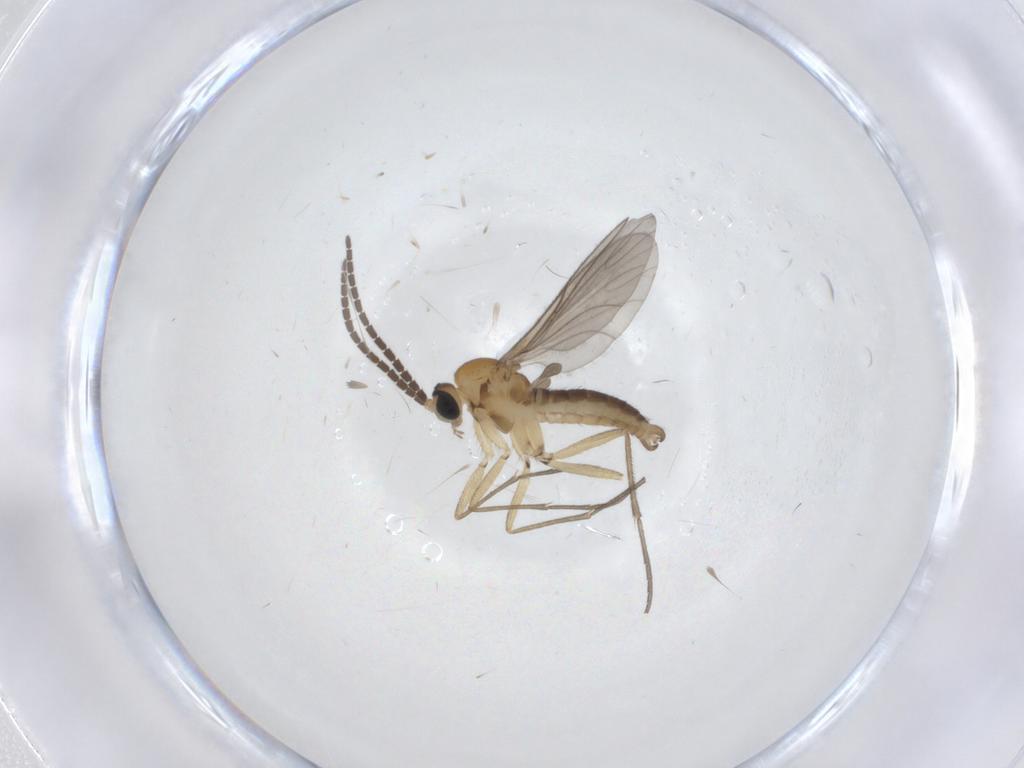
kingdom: Animalia
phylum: Arthropoda
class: Insecta
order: Diptera
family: Sciaridae
